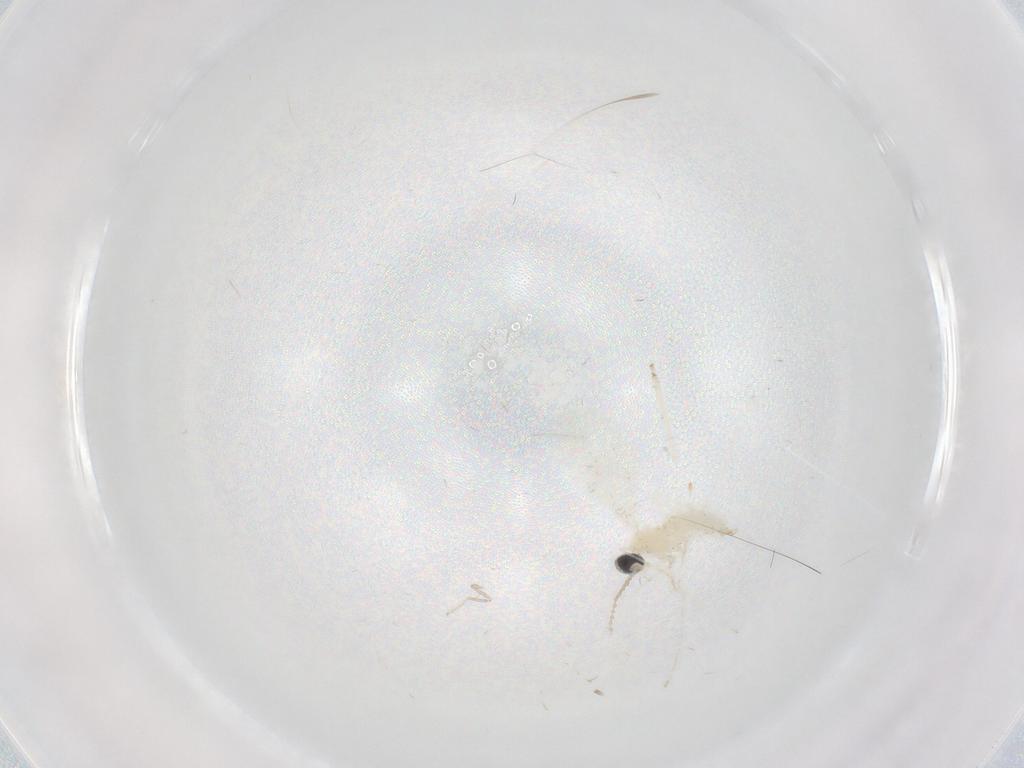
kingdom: Animalia
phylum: Arthropoda
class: Insecta
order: Diptera
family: Cecidomyiidae
